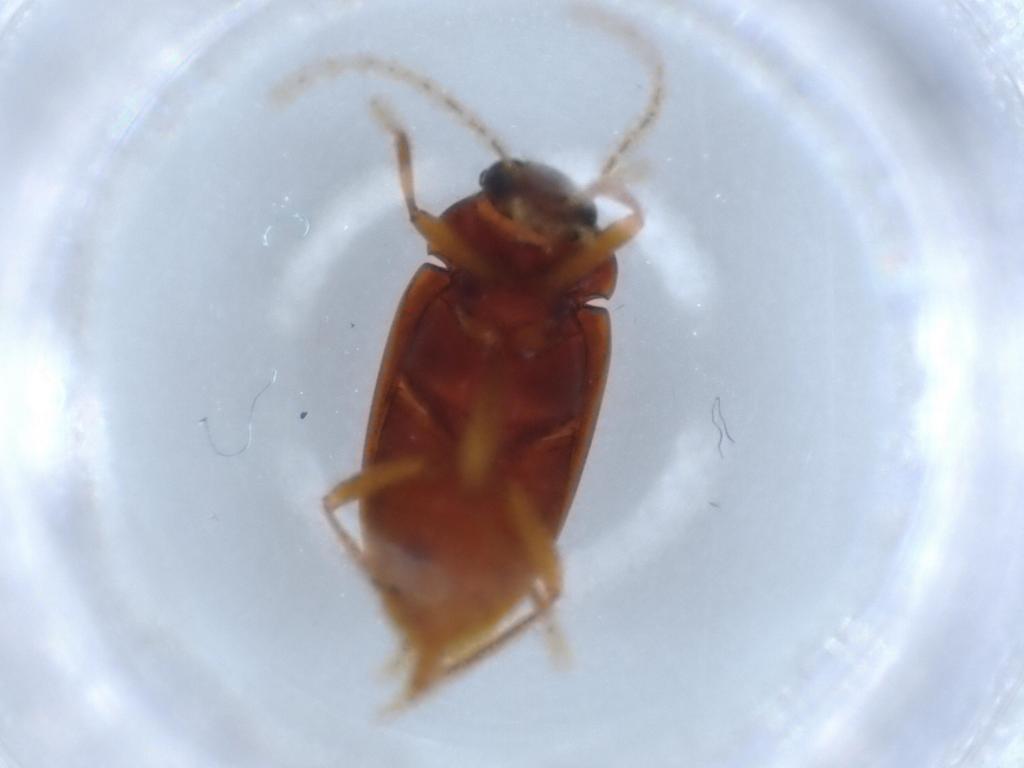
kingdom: Animalia
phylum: Arthropoda
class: Insecta
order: Coleoptera
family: Ptilodactylidae
